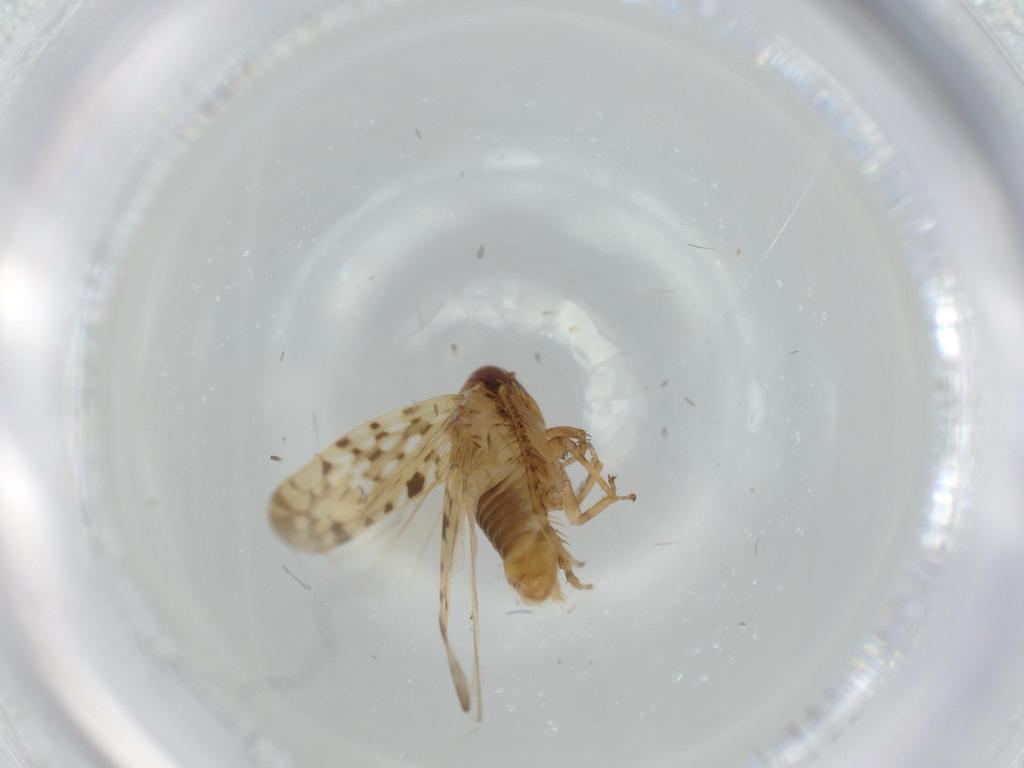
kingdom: Animalia
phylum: Arthropoda
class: Insecta
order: Hemiptera
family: Cicadellidae
